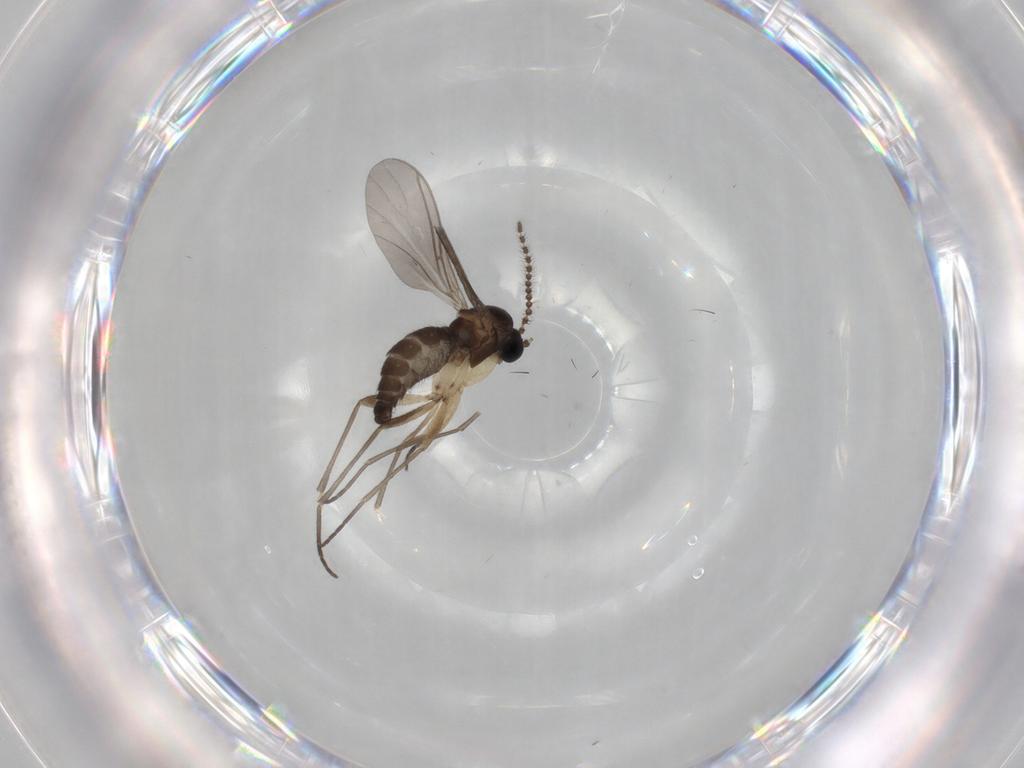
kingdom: Animalia
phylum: Arthropoda
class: Insecta
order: Diptera
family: Sciaridae
